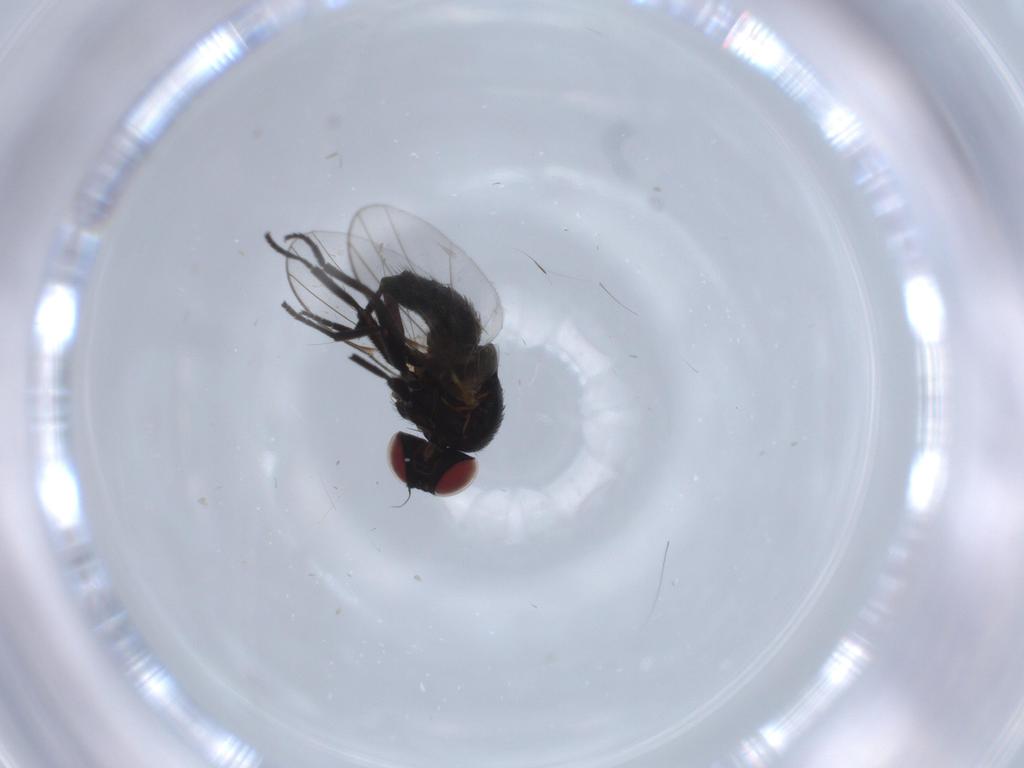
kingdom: Animalia
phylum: Arthropoda
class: Insecta
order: Diptera
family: Agromyzidae
